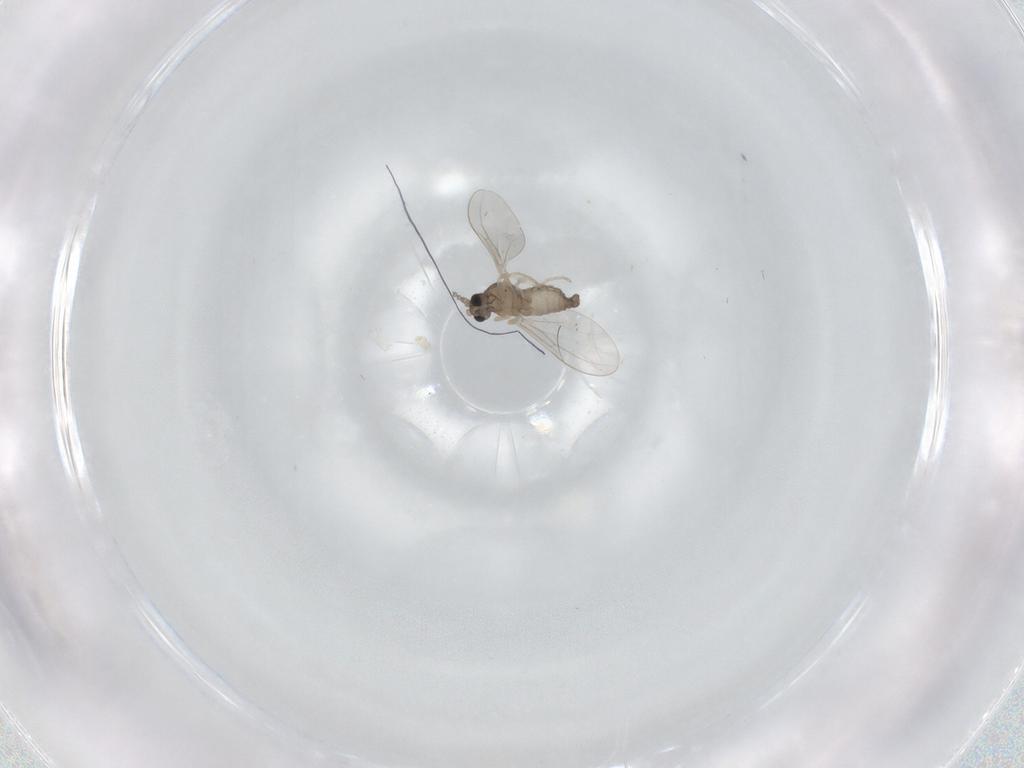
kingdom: Animalia
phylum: Arthropoda
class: Insecta
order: Diptera
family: Cecidomyiidae
